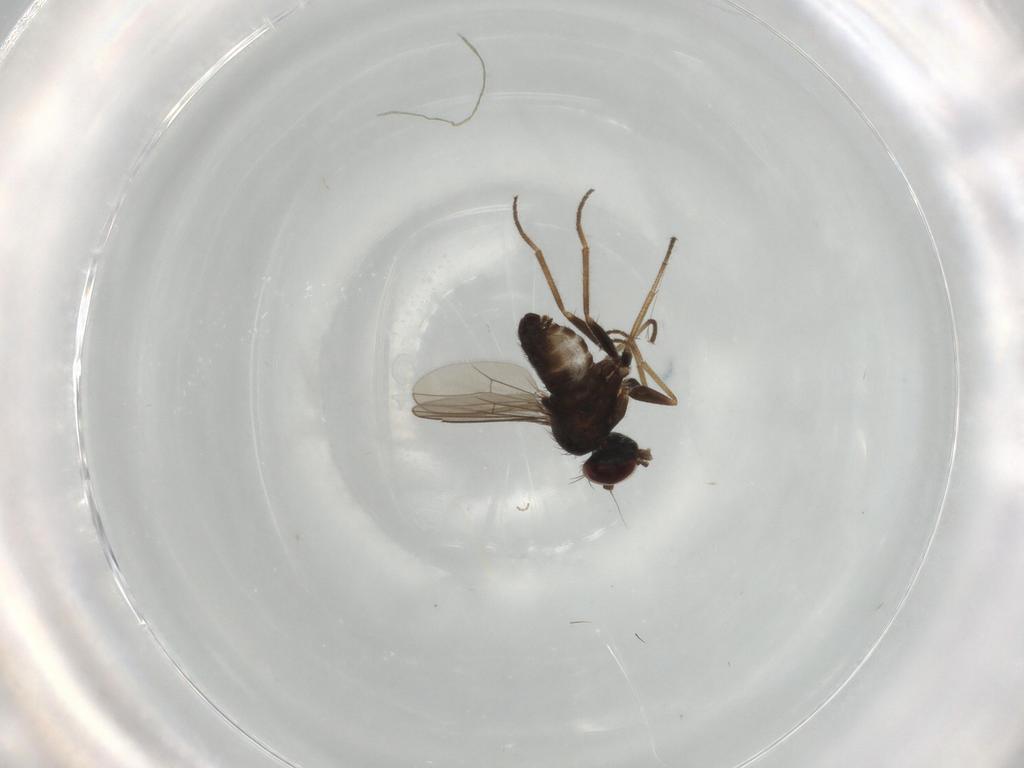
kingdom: Animalia
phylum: Arthropoda
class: Insecta
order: Diptera
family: Dolichopodidae
